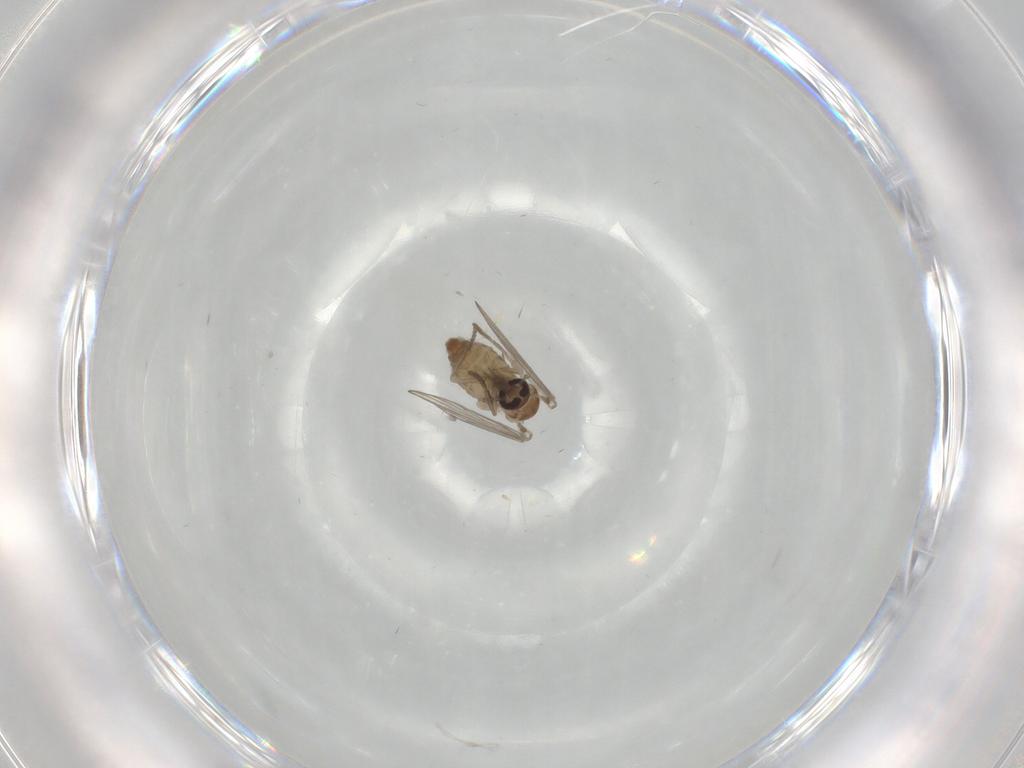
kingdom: Animalia
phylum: Arthropoda
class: Insecta
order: Diptera
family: Psychodidae
